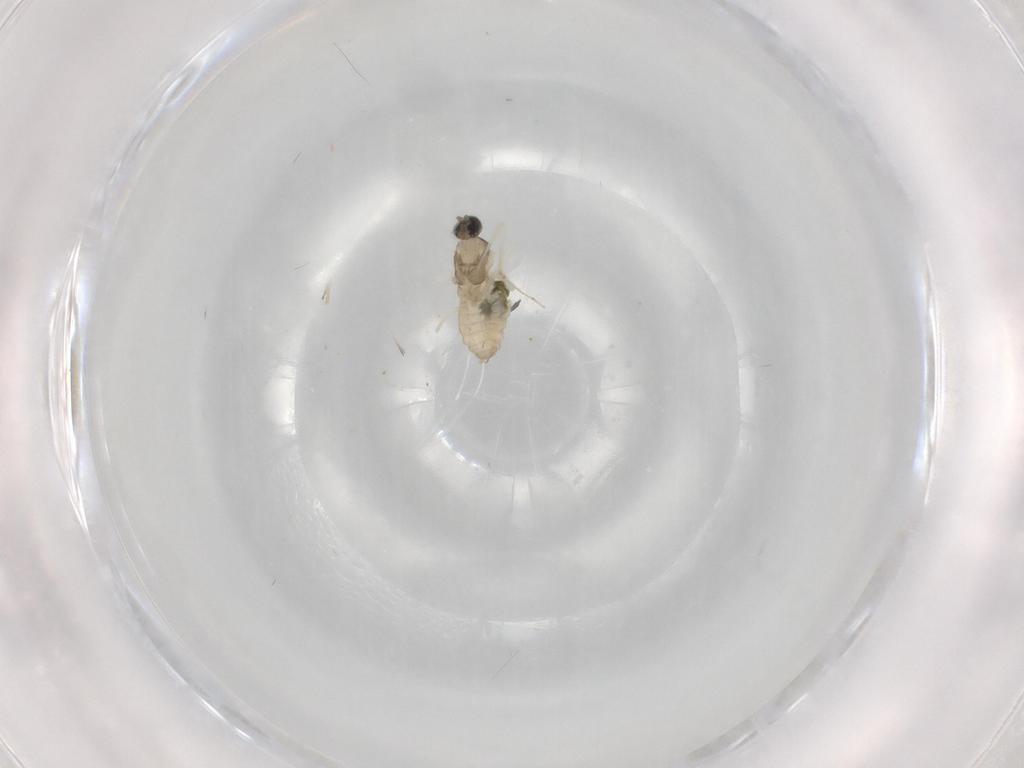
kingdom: Animalia
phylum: Arthropoda
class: Insecta
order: Diptera
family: Cecidomyiidae
